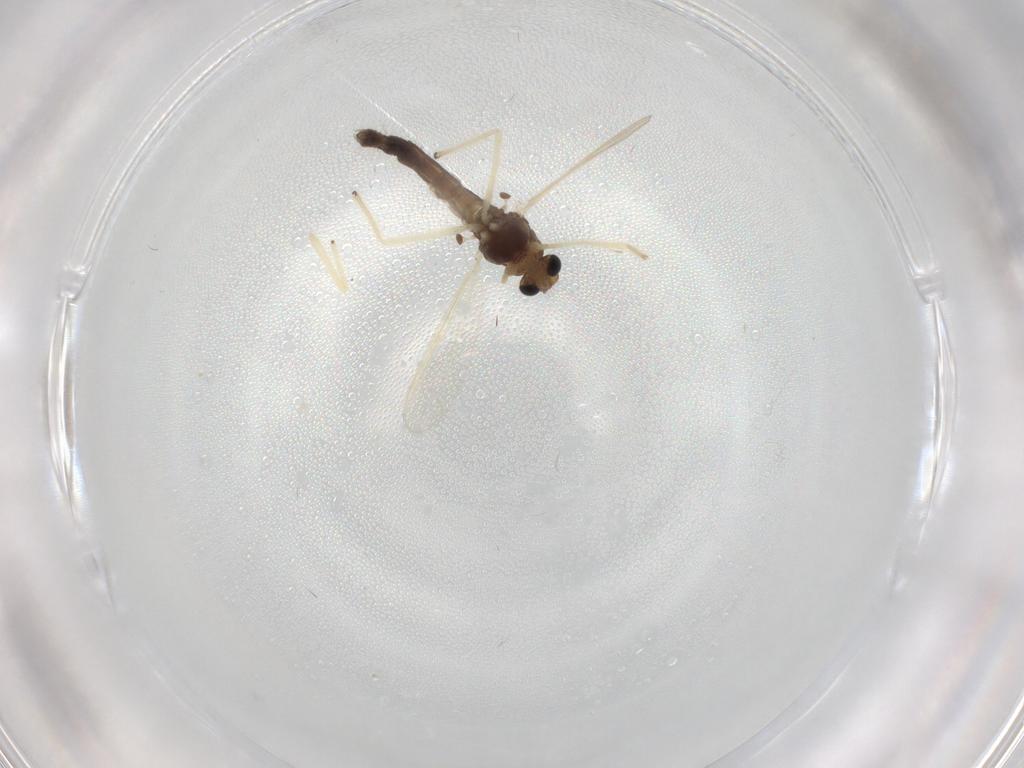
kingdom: Animalia
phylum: Arthropoda
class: Insecta
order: Diptera
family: Chironomidae
